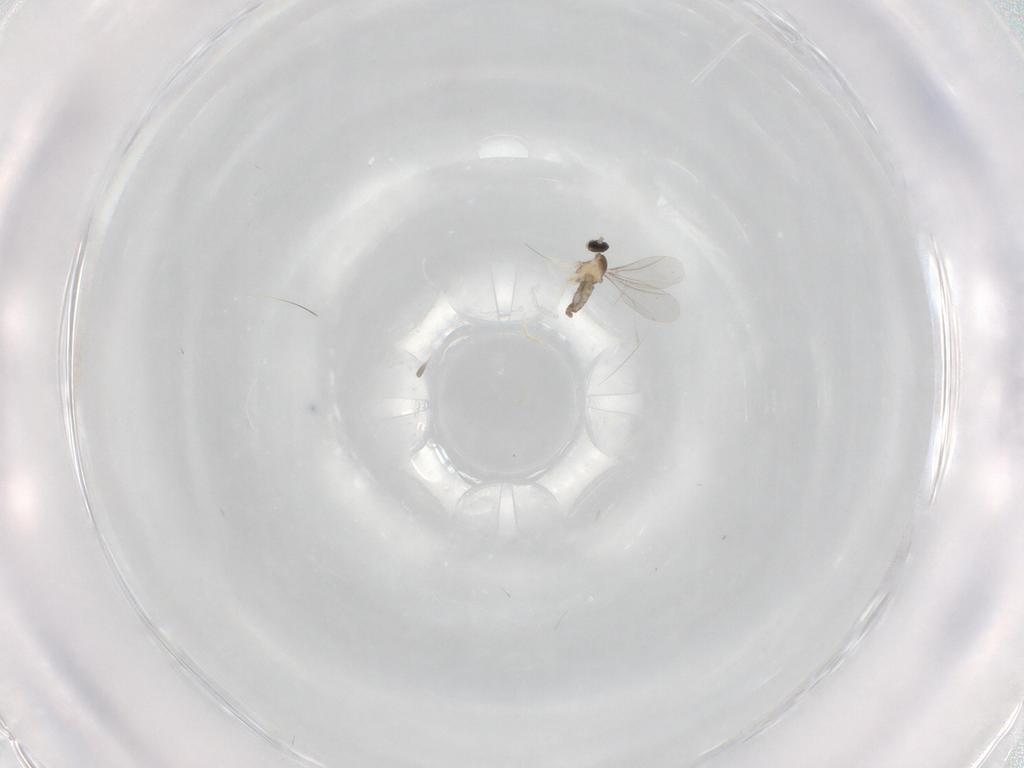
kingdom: Animalia
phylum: Arthropoda
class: Insecta
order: Diptera
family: Cecidomyiidae
